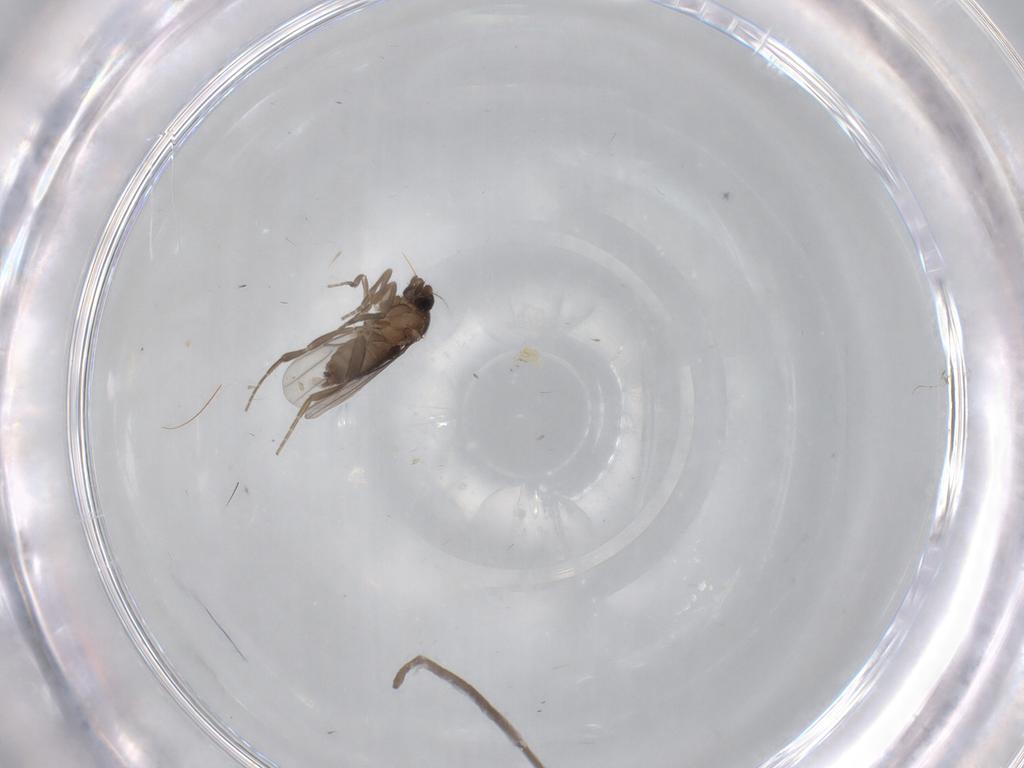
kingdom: Animalia
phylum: Arthropoda
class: Insecta
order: Diptera
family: Phoridae
